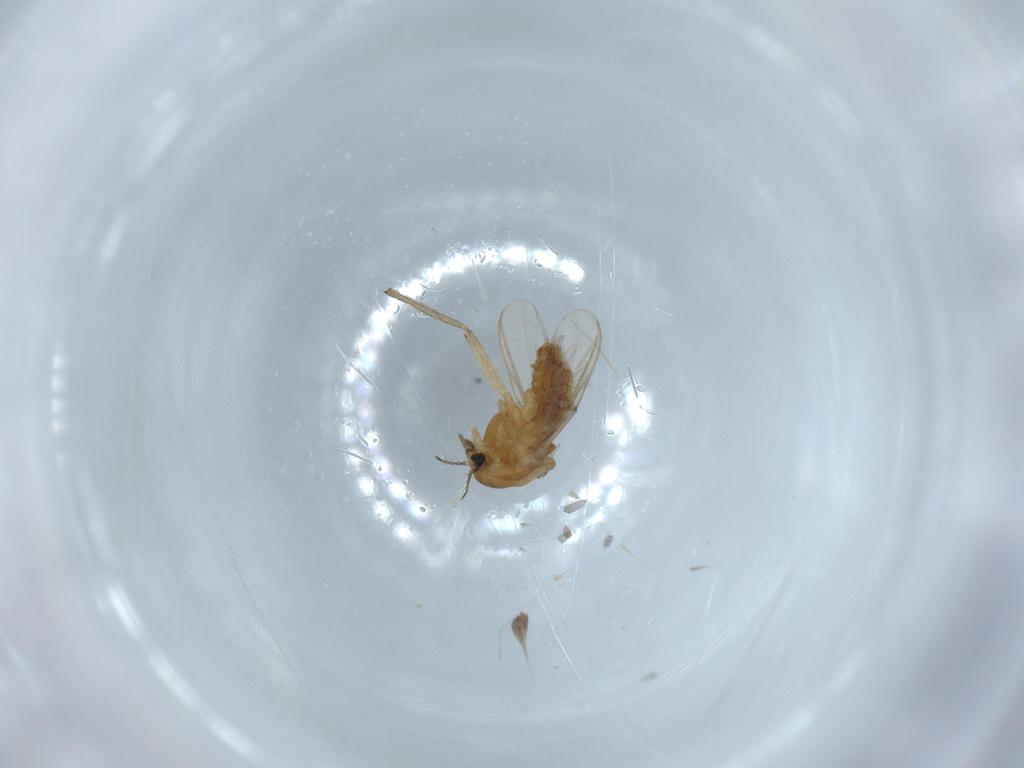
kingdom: Animalia
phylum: Arthropoda
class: Insecta
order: Diptera
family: Chironomidae
